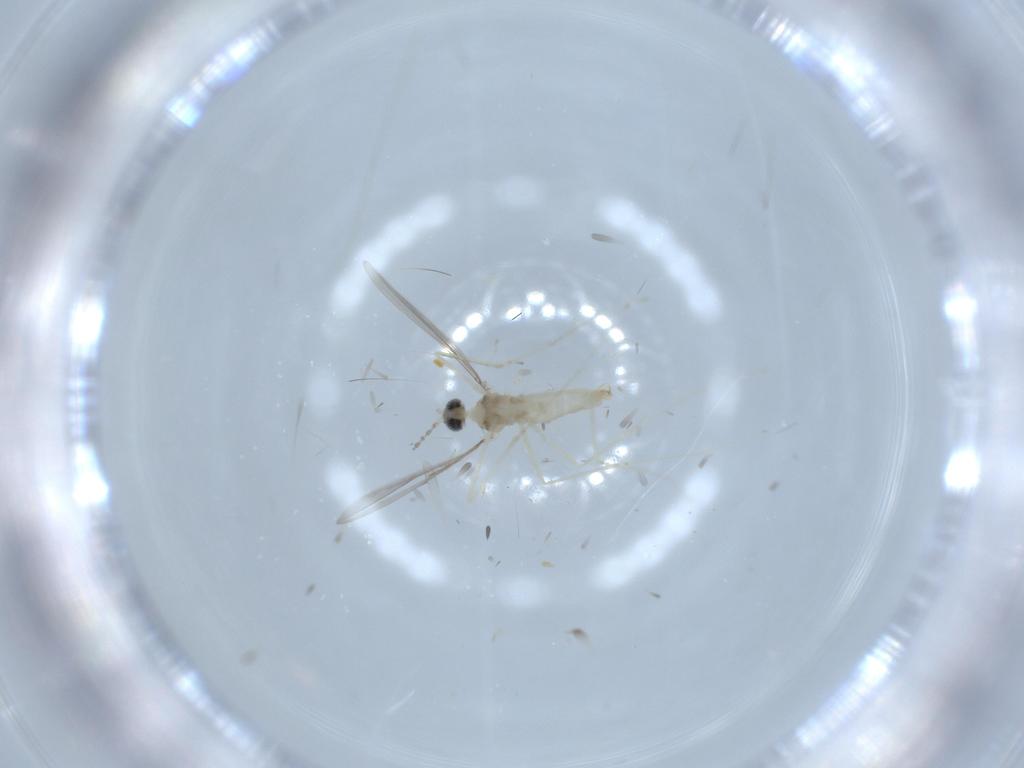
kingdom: Animalia
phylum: Arthropoda
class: Insecta
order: Diptera
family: Cecidomyiidae
